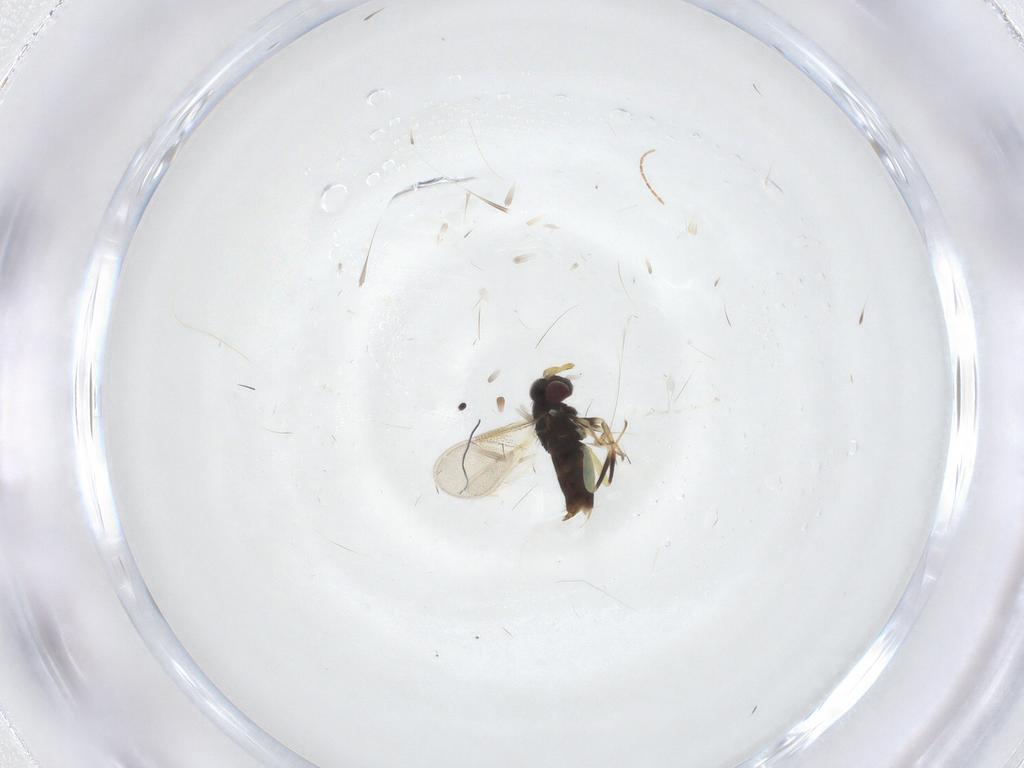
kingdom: Animalia
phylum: Arthropoda
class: Insecta
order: Hymenoptera
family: Aphelinidae
